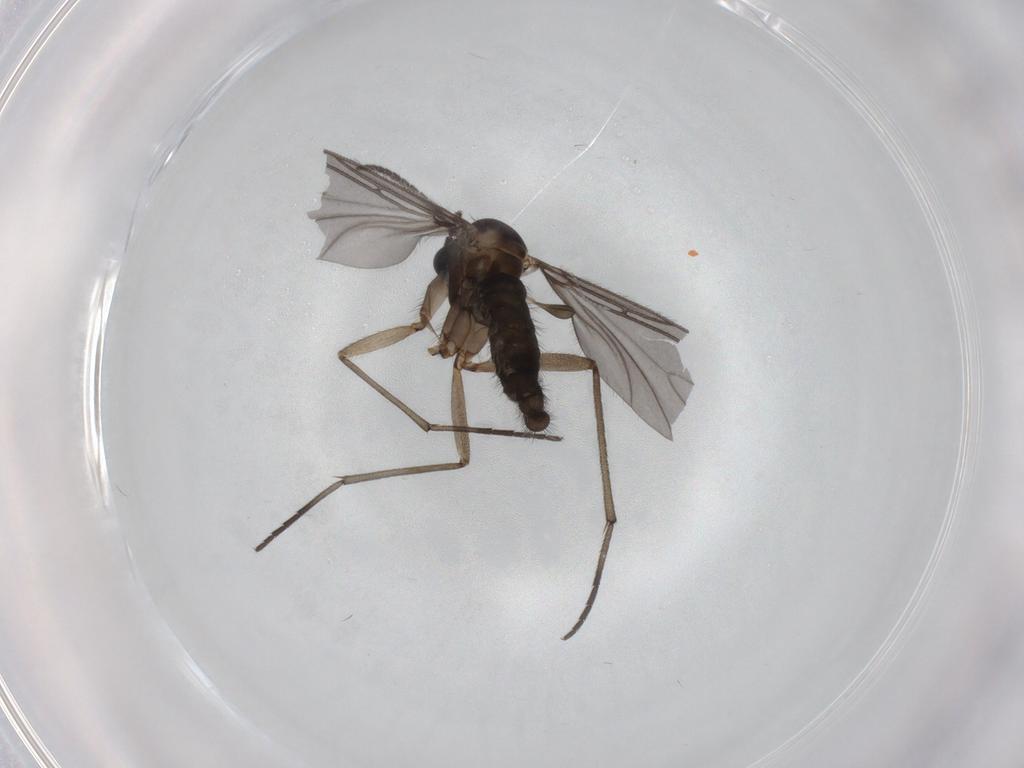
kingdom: Animalia
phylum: Arthropoda
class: Insecta
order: Diptera
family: Sciaridae
